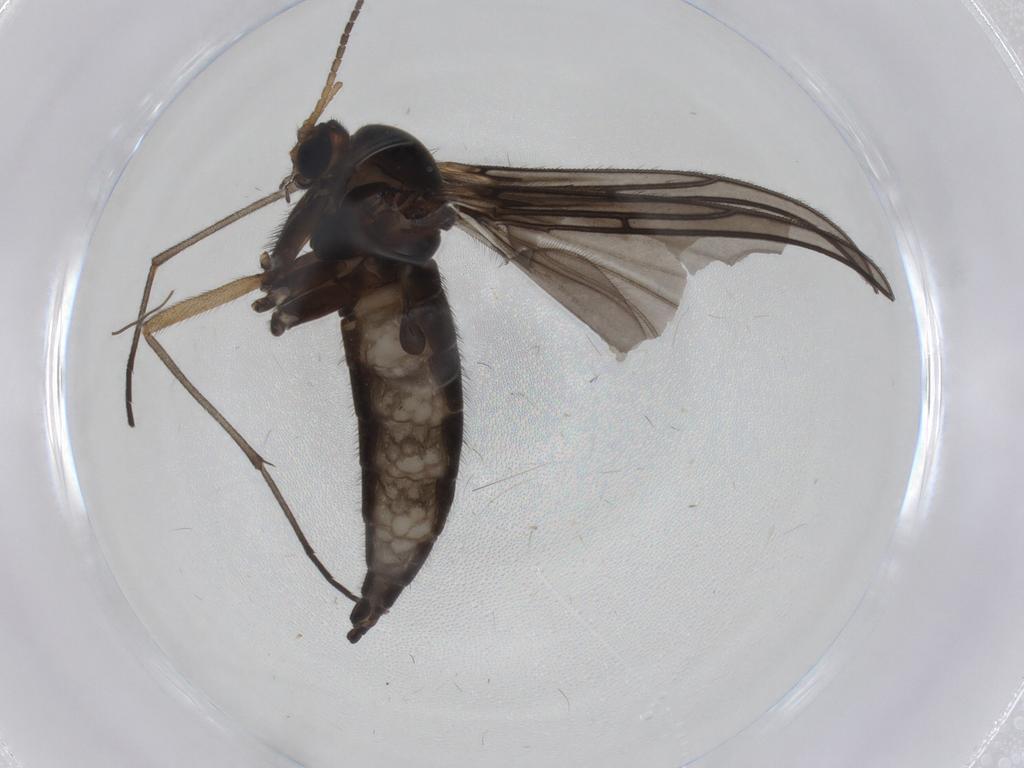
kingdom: Animalia
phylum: Arthropoda
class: Insecta
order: Diptera
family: Sciaridae
